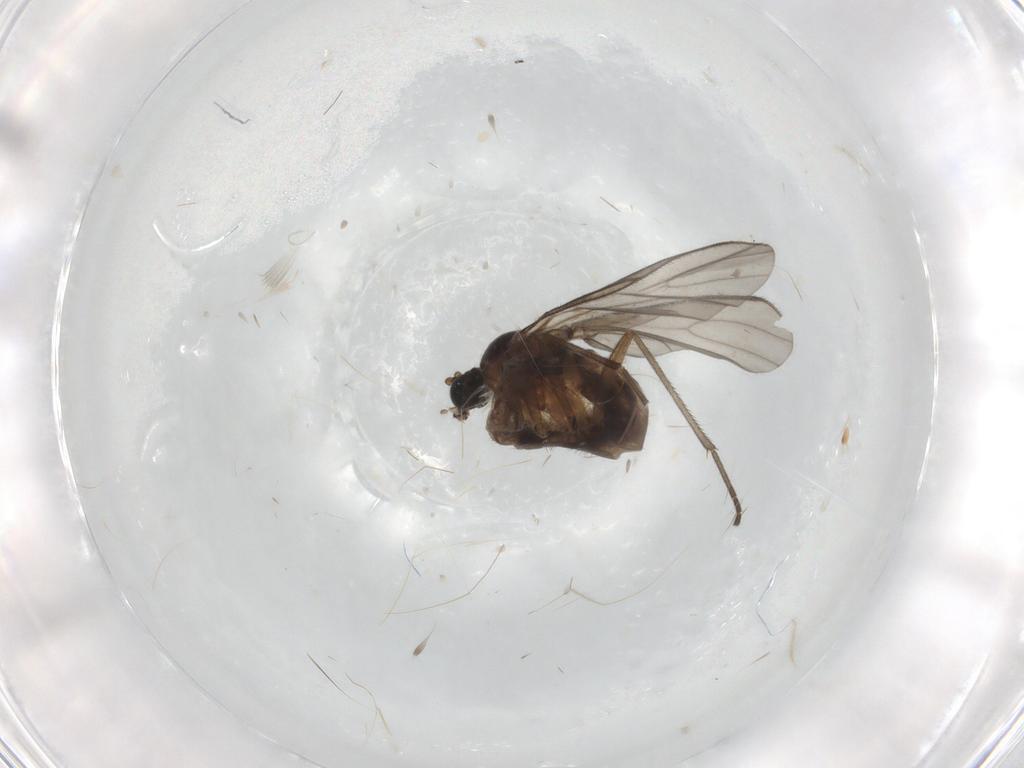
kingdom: Animalia
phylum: Arthropoda
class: Insecta
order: Diptera
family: Sciaridae
